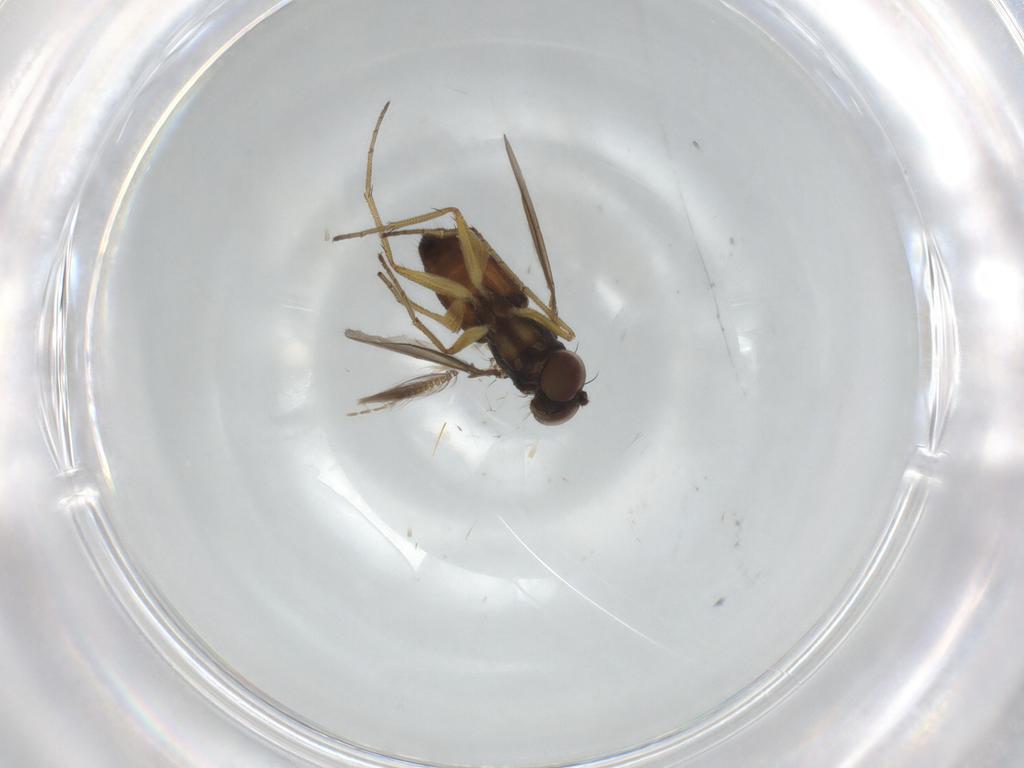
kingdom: Animalia
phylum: Arthropoda
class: Insecta
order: Diptera
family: Dolichopodidae
